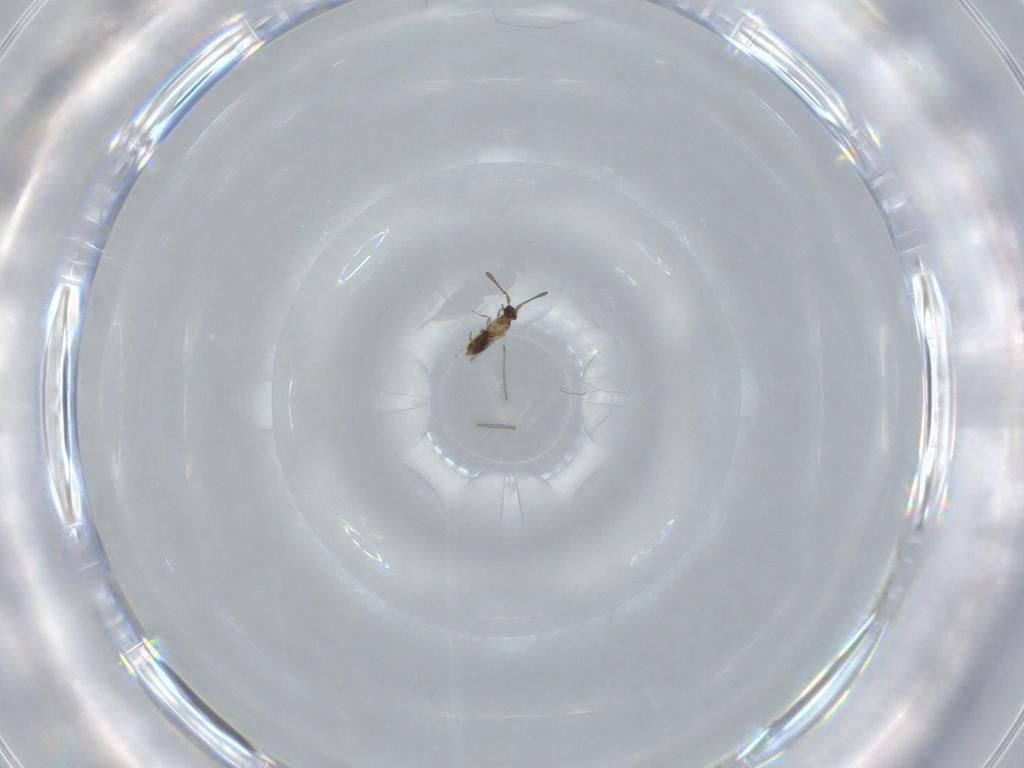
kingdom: Animalia
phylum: Arthropoda
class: Insecta
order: Hymenoptera
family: Mymaridae
